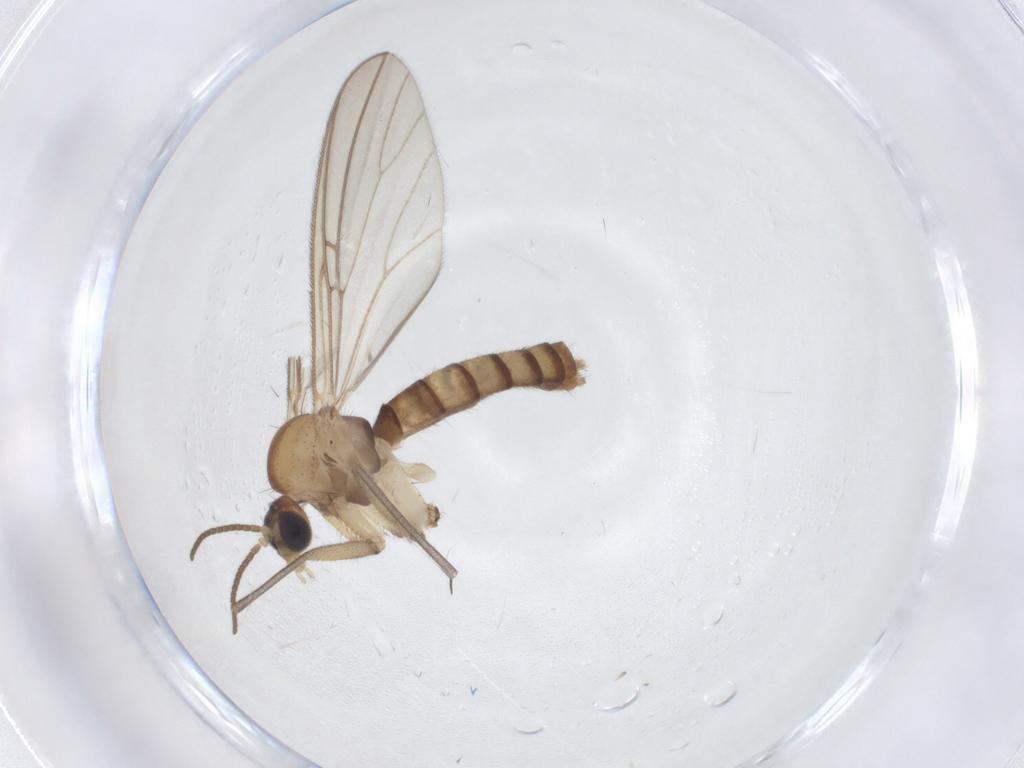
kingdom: Animalia
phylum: Arthropoda
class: Insecta
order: Diptera
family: Mycetophilidae
